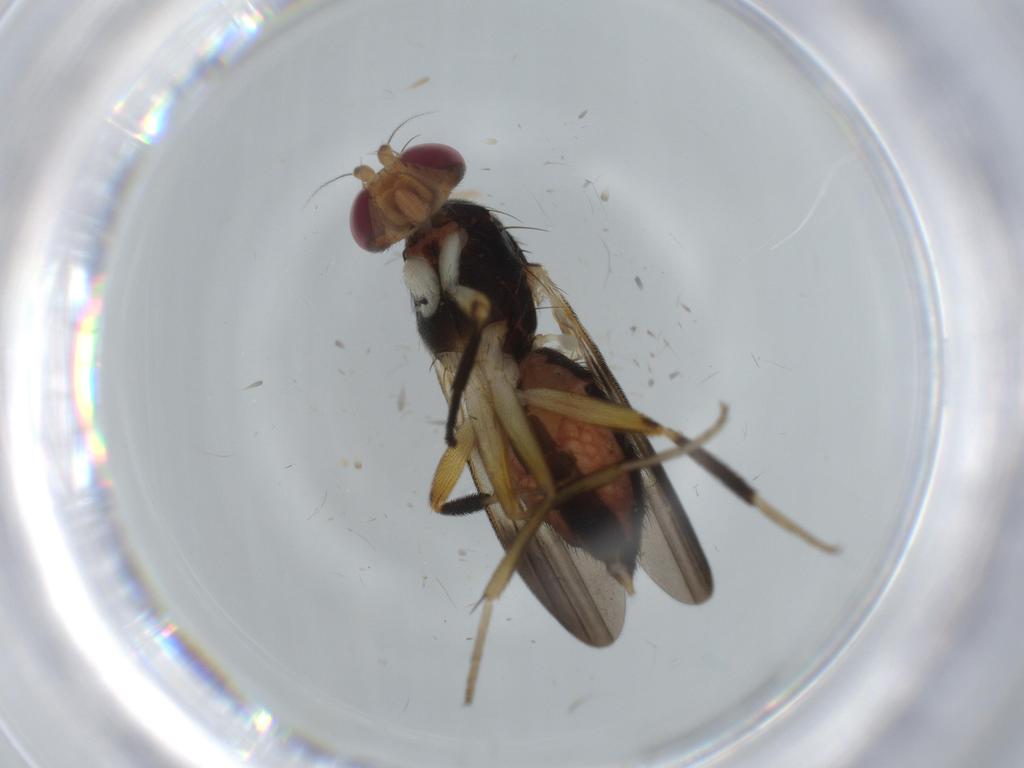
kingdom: Animalia
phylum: Arthropoda
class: Insecta
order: Diptera
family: Clusiidae
